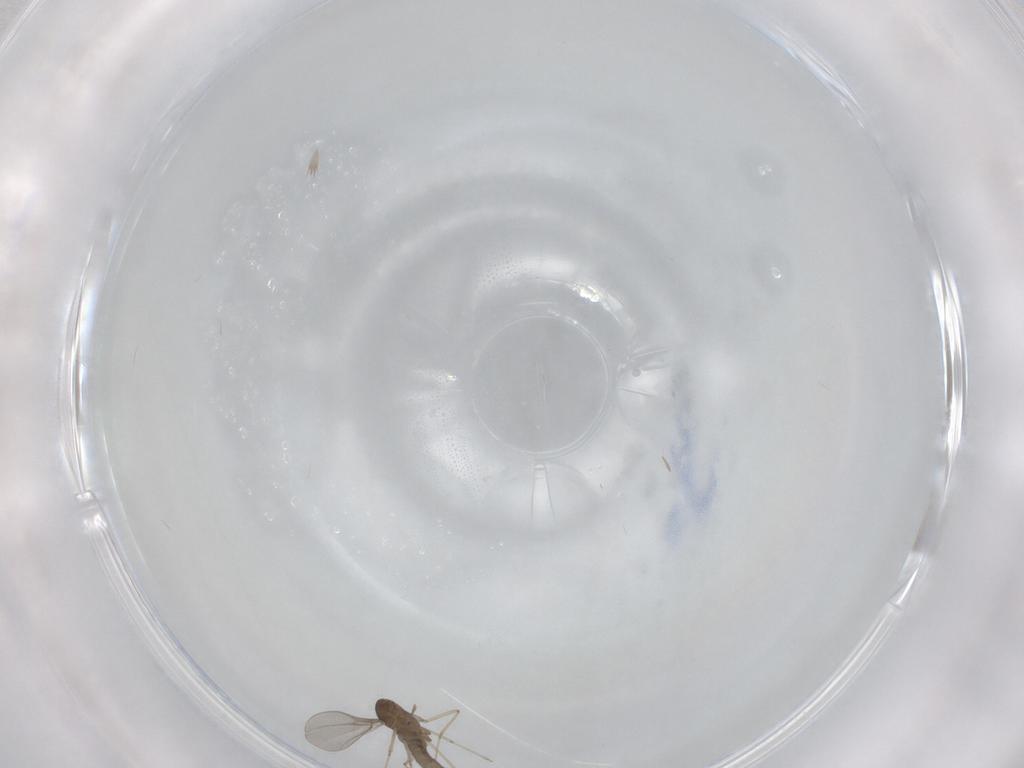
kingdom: Animalia
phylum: Arthropoda
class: Insecta
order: Diptera
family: Cecidomyiidae
